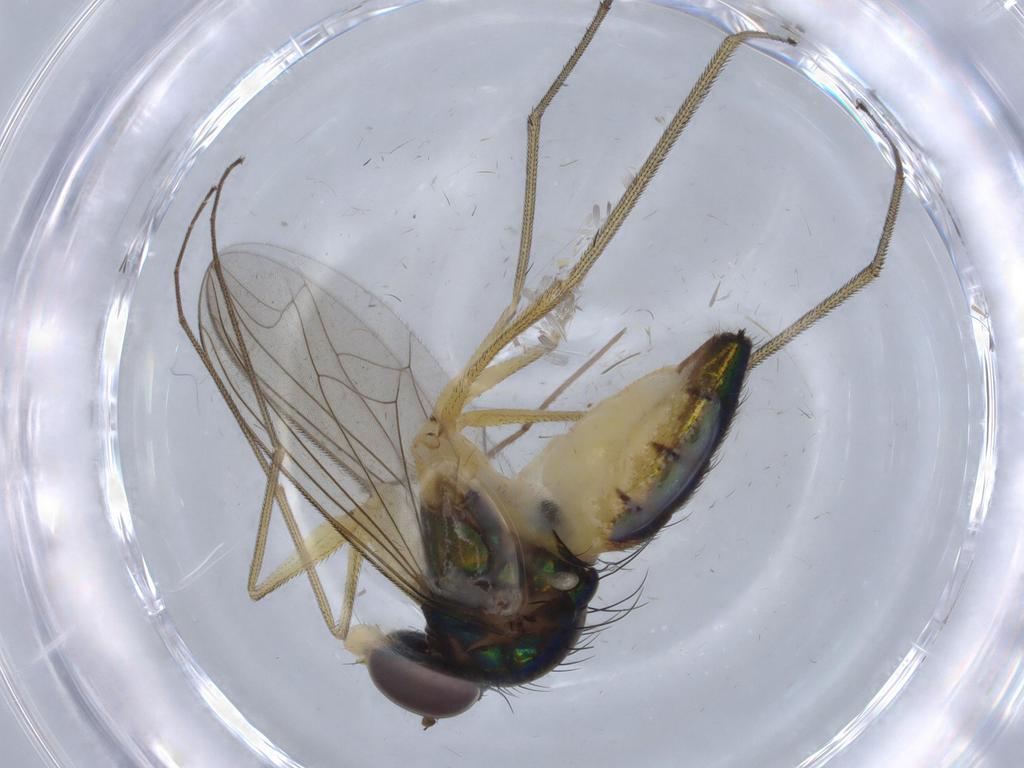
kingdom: Animalia
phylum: Arthropoda
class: Insecta
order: Diptera
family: Dolichopodidae
